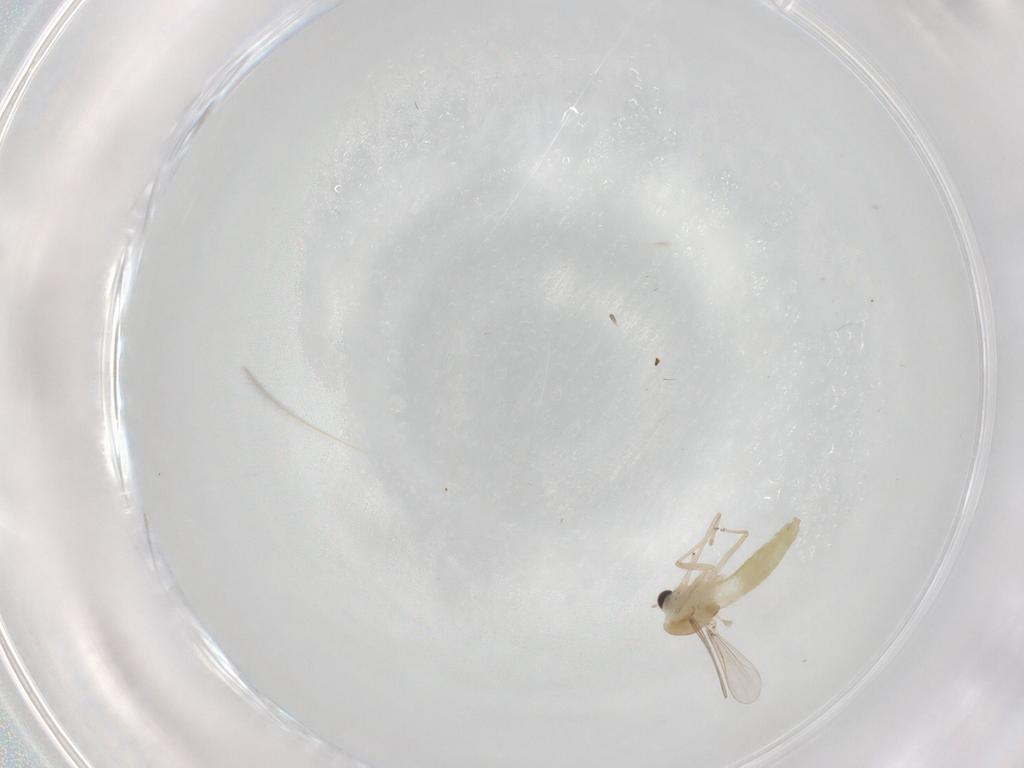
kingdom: Animalia
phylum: Arthropoda
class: Insecta
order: Diptera
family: Chironomidae
